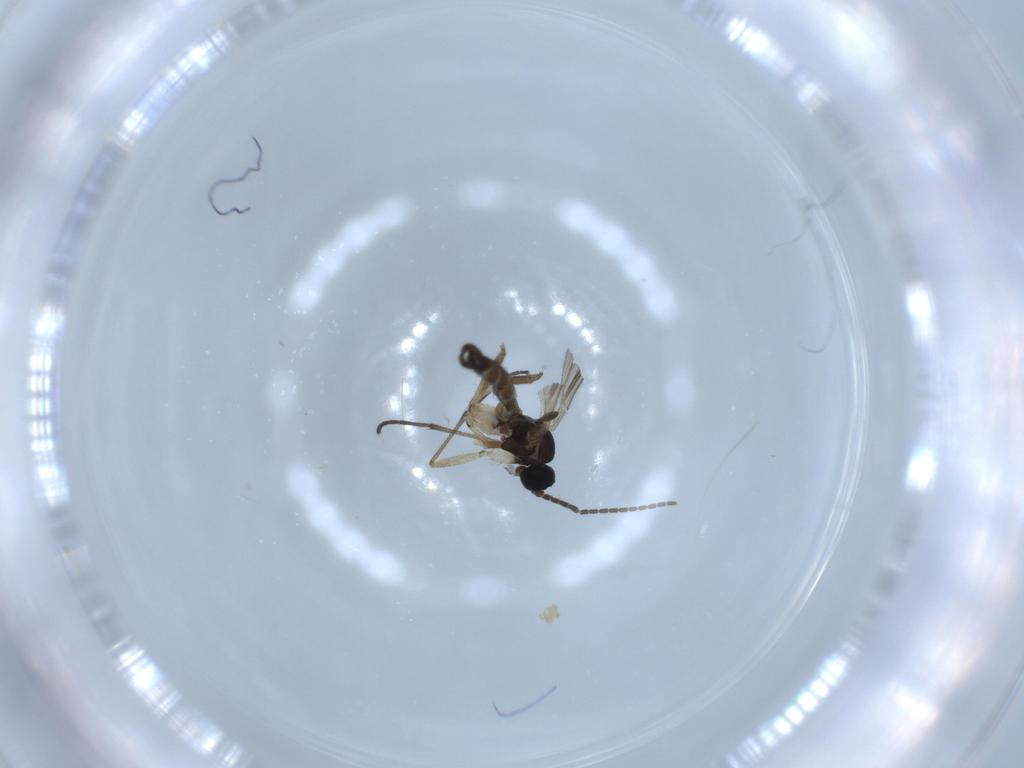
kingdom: Animalia
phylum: Arthropoda
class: Insecta
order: Diptera
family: Sciaridae
